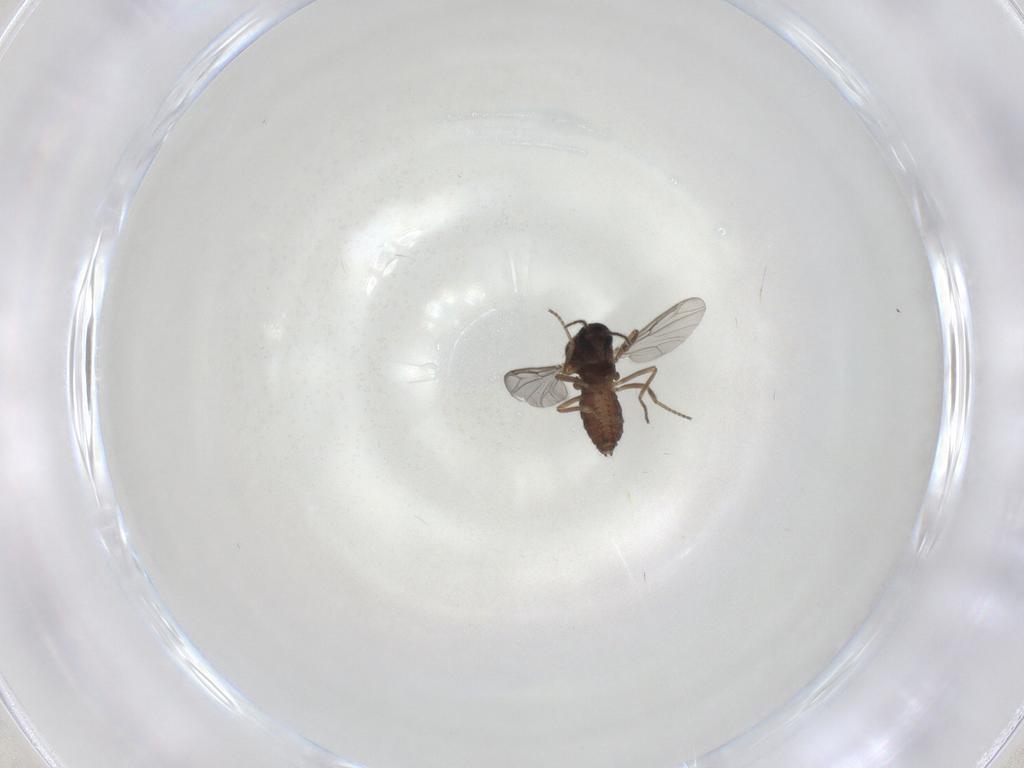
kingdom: Animalia
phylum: Arthropoda
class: Insecta
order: Diptera
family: Ceratopogonidae
